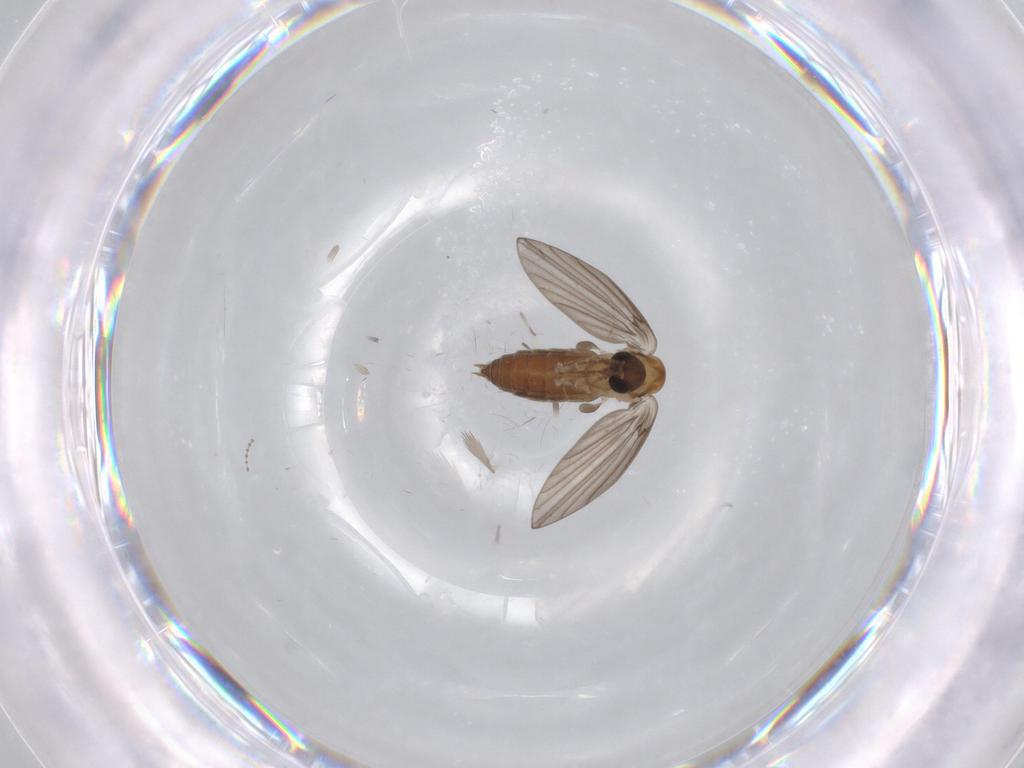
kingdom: Animalia
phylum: Arthropoda
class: Insecta
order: Diptera
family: Cecidomyiidae
